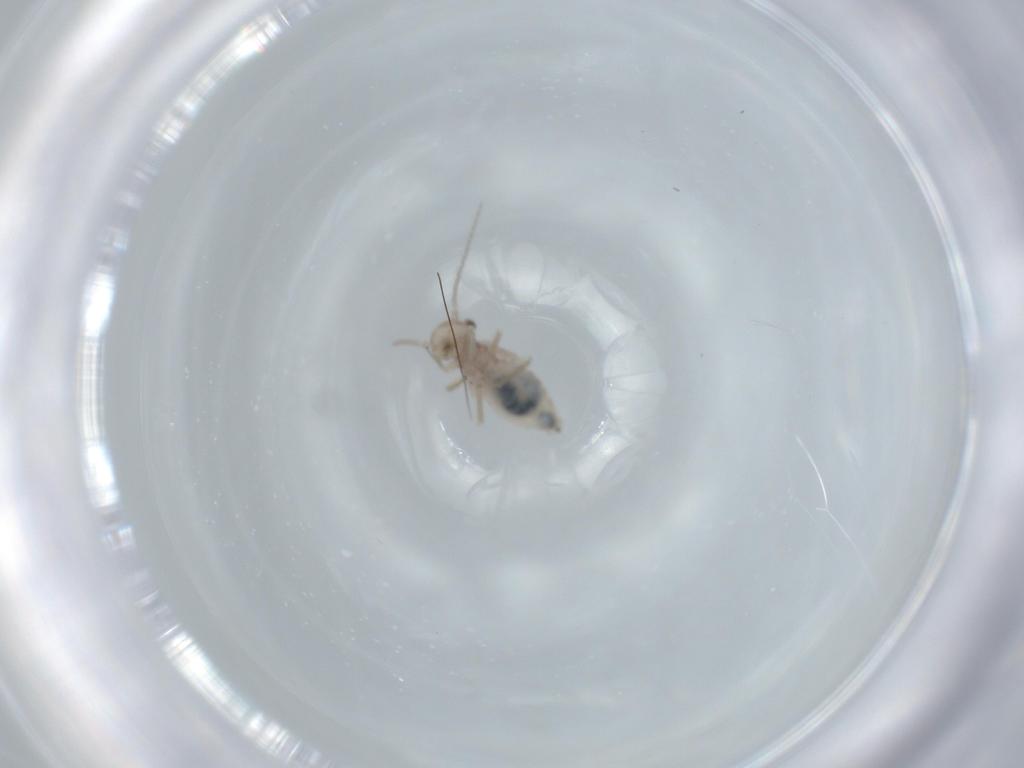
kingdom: Animalia
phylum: Arthropoda
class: Insecta
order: Psocodea
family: Caeciliusidae
